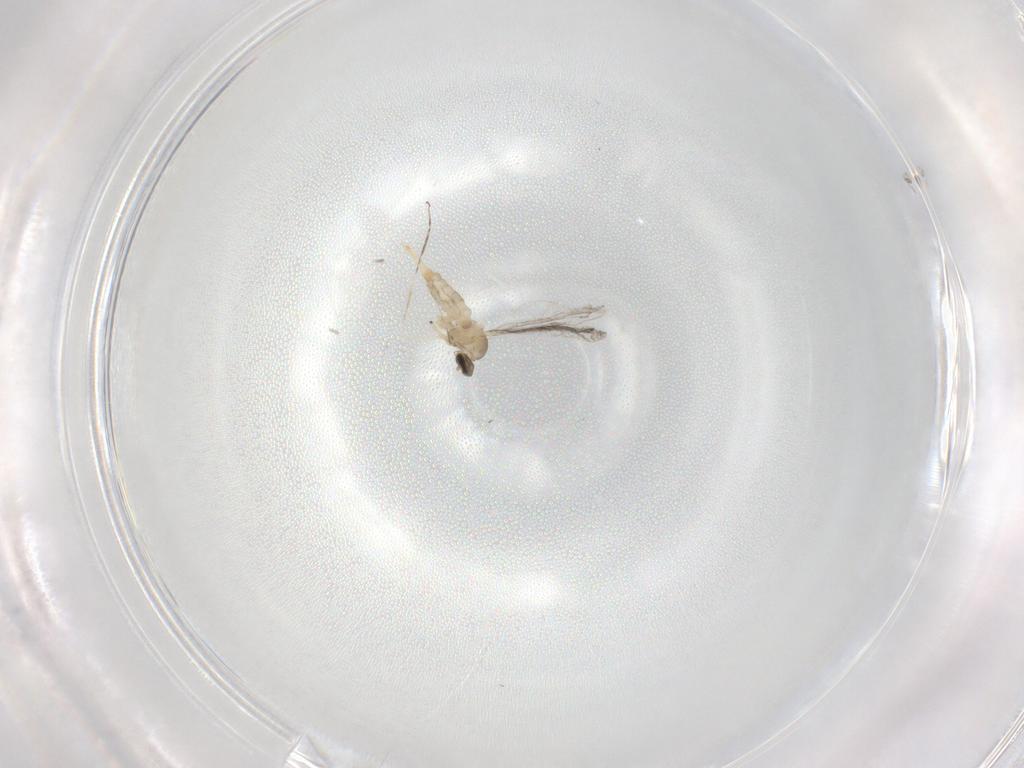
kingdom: Animalia
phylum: Arthropoda
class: Insecta
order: Diptera
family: Cecidomyiidae
